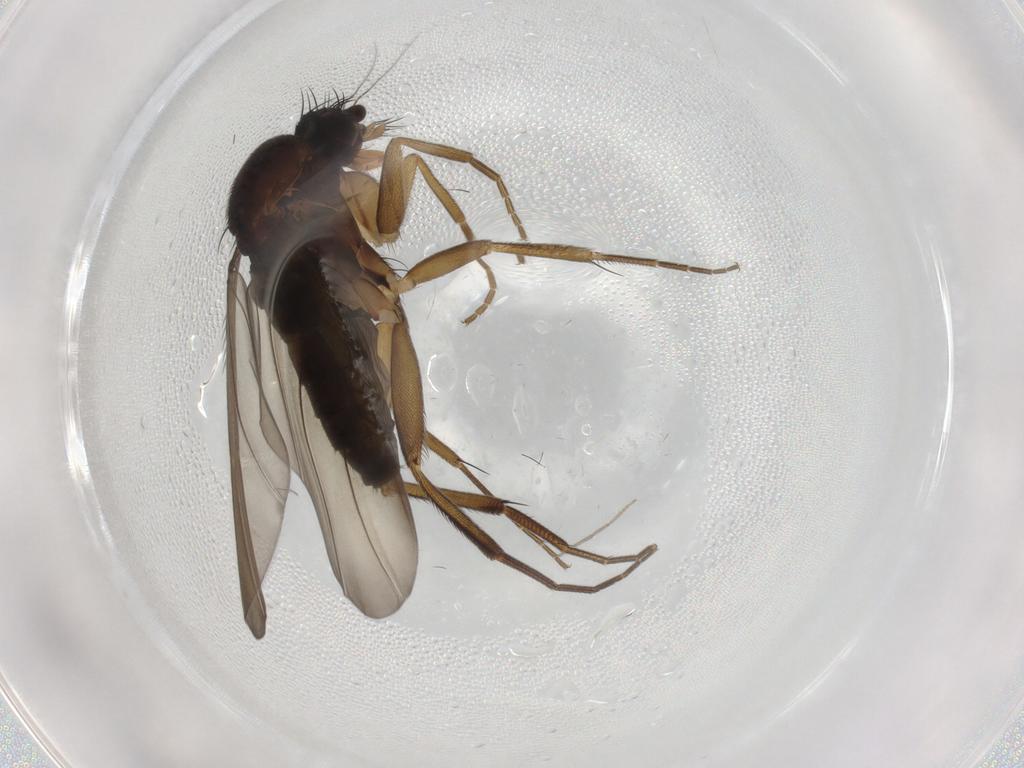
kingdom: Animalia
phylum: Arthropoda
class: Insecta
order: Diptera
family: Phoridae
